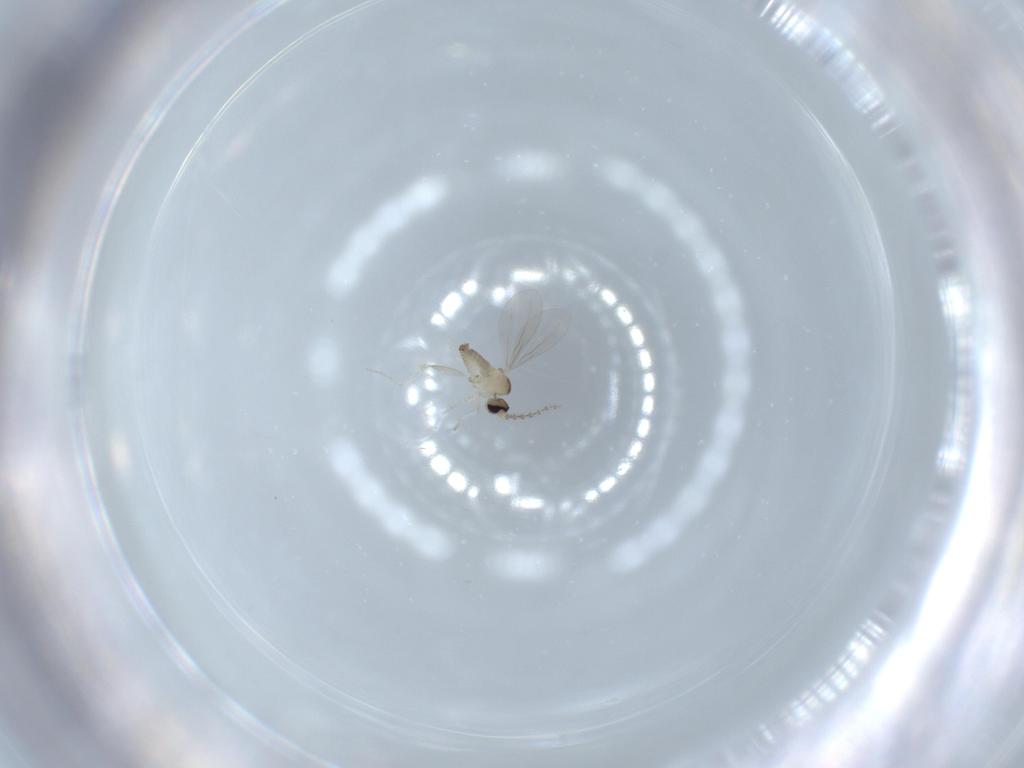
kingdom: Animalia
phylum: Arthropoda
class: Insecta
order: Diptera
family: Cecidomyiidae
